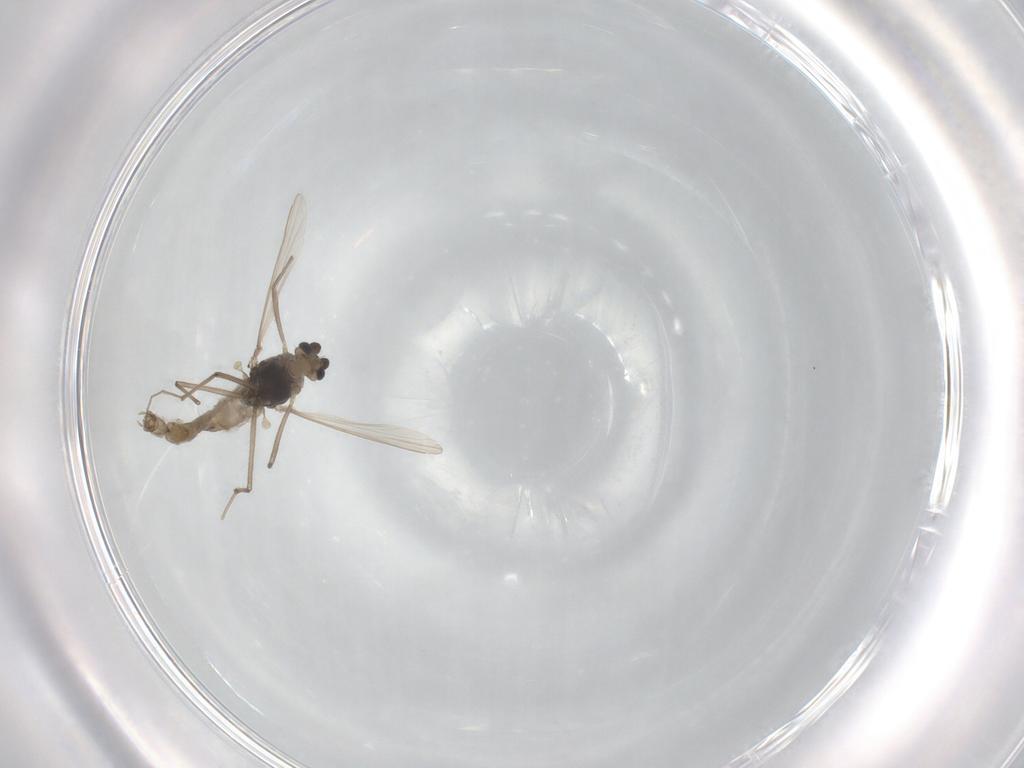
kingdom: Animalia
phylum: Arthropoda
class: Insecta
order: Diptera
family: Chironomidae
